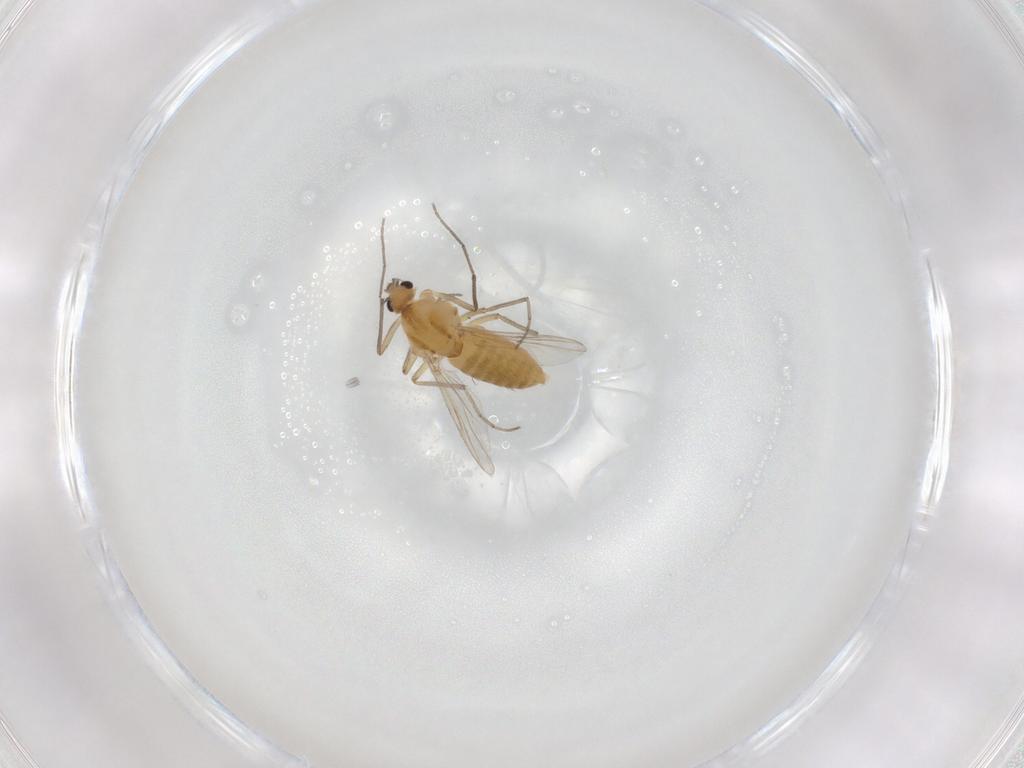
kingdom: Animalia
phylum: Arthropoda
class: Insecta
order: Diptera
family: Chironomidae
